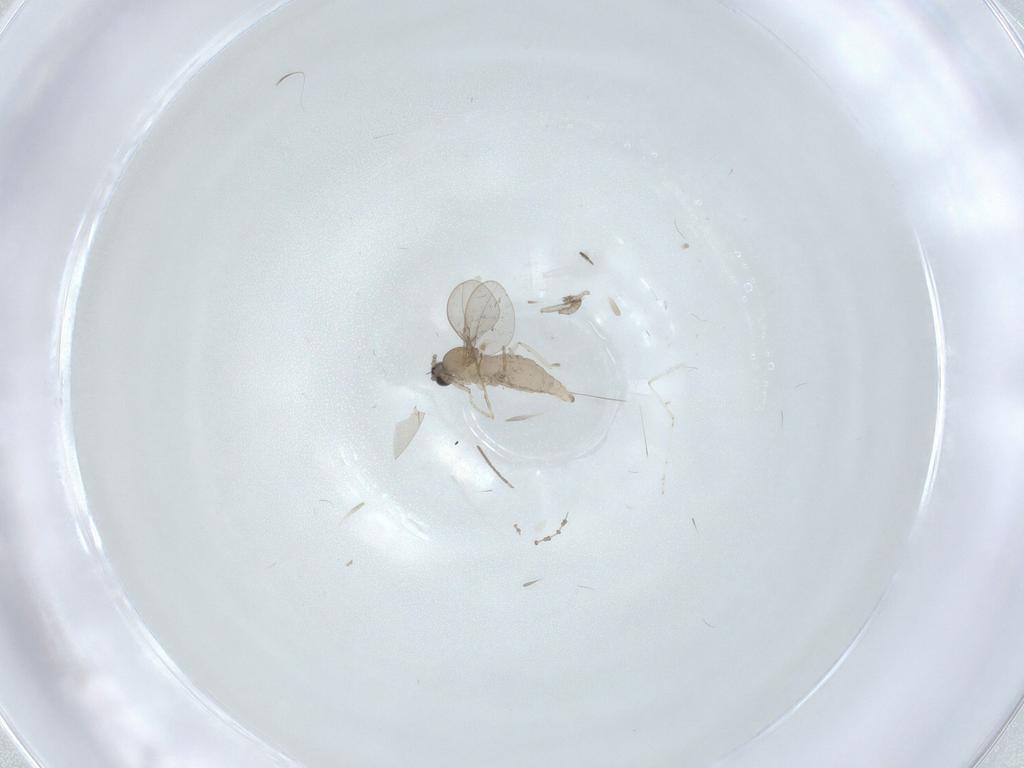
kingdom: Animalia
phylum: Arthropoda
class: Insecta
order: Diptera
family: Cecidomyiidae
